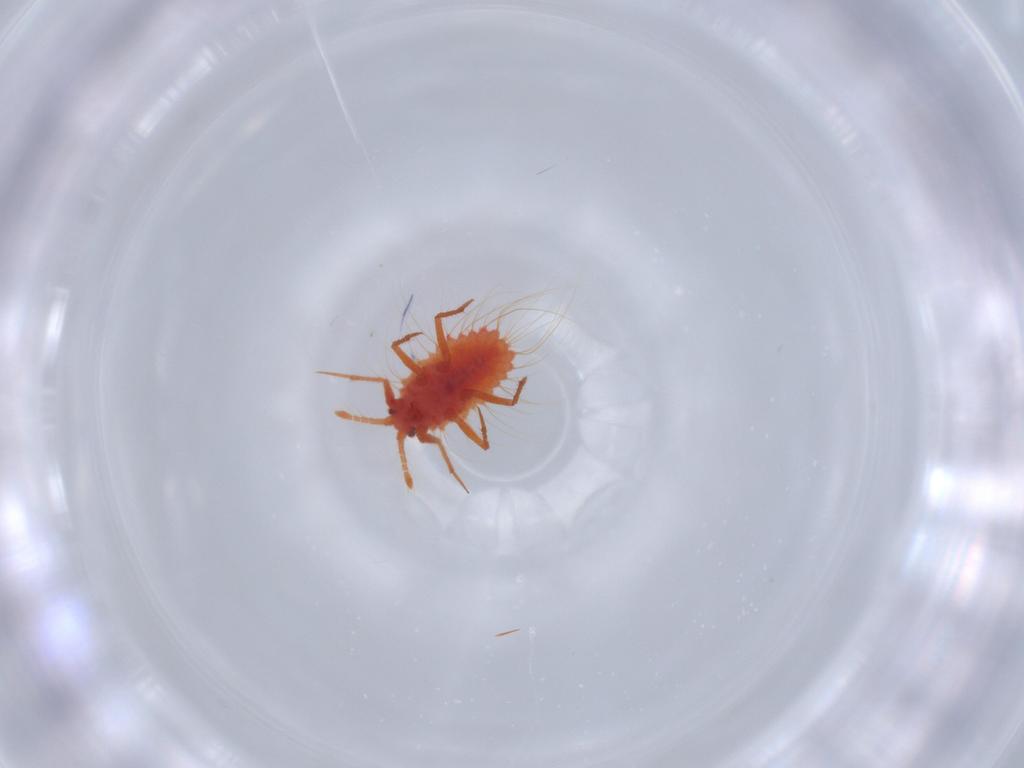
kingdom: Animalia
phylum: Arthropoda
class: Insecta
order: Hemiptera
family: Monophlebidae
